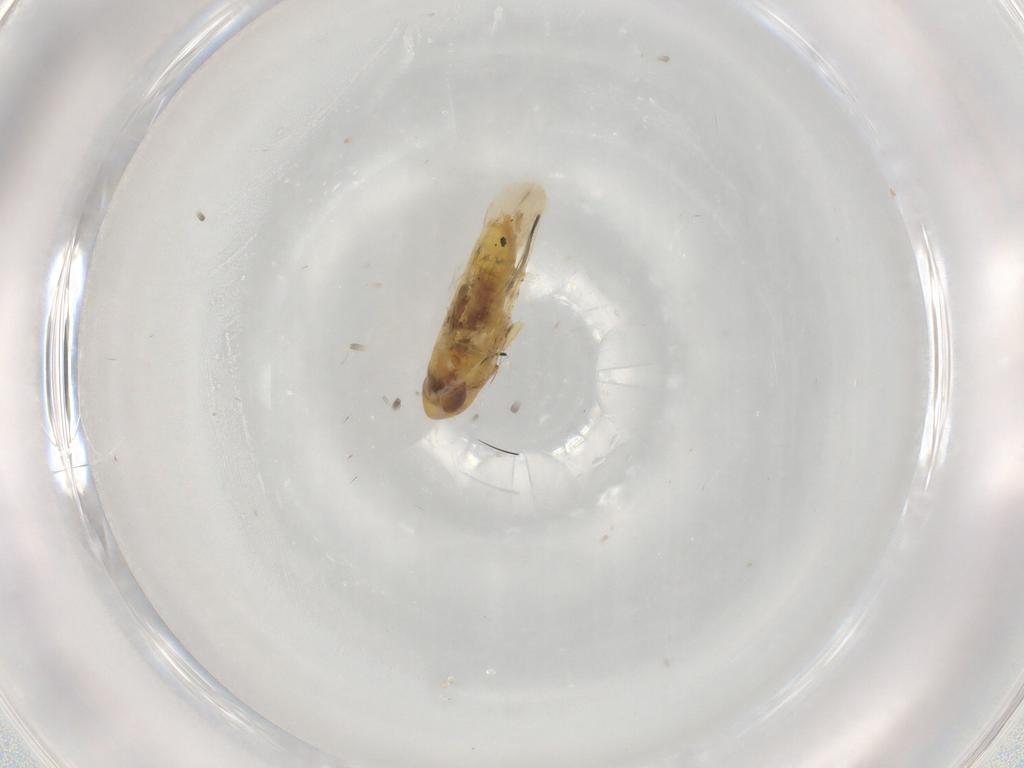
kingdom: Animalia
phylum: Arthropoda
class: Insecta
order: Hemiptera
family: Cicadellidae
